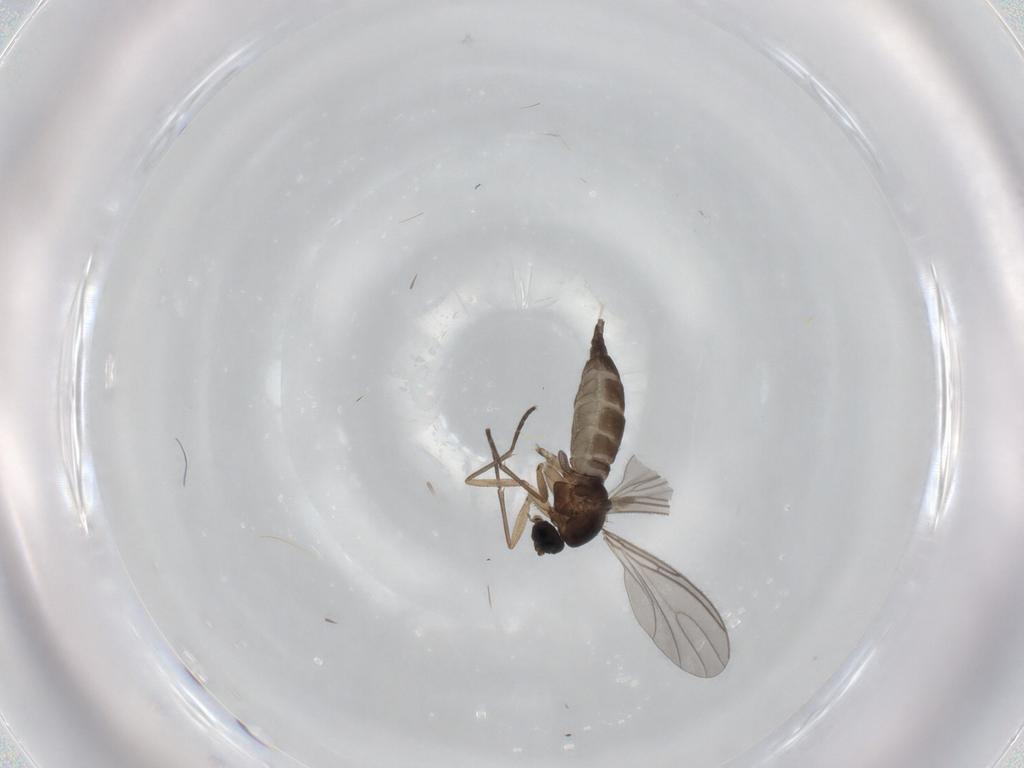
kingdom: Animalia
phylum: Arthropoda
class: Insecta
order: Diptera
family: Sciaridae
